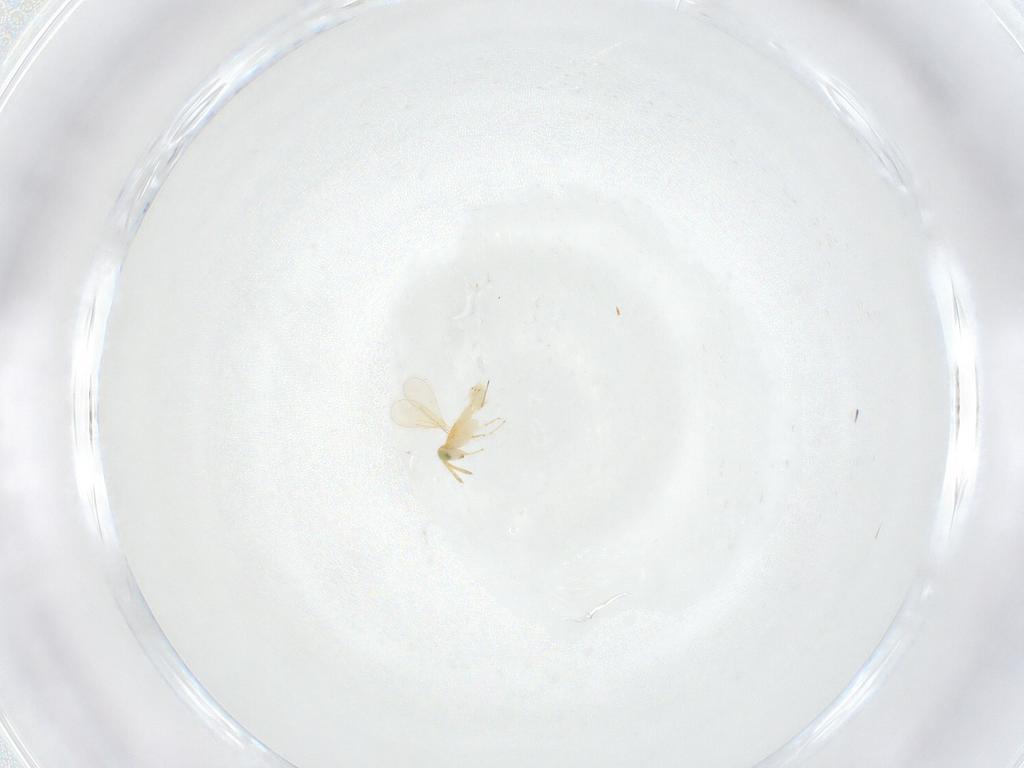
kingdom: Animalia
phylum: Arthropoda
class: Insecta
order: Hymenoptera
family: Aphelinidae
